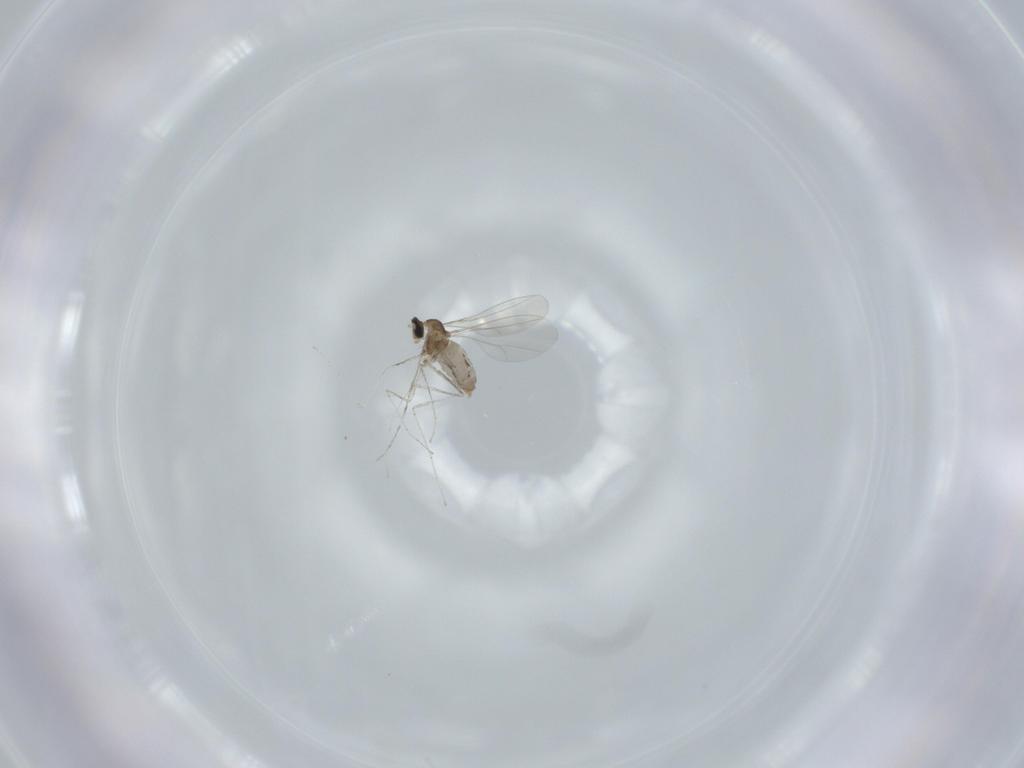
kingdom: Animalia
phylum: Arthropoda
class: Insecta
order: Diptera
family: Cecidomyiidae
